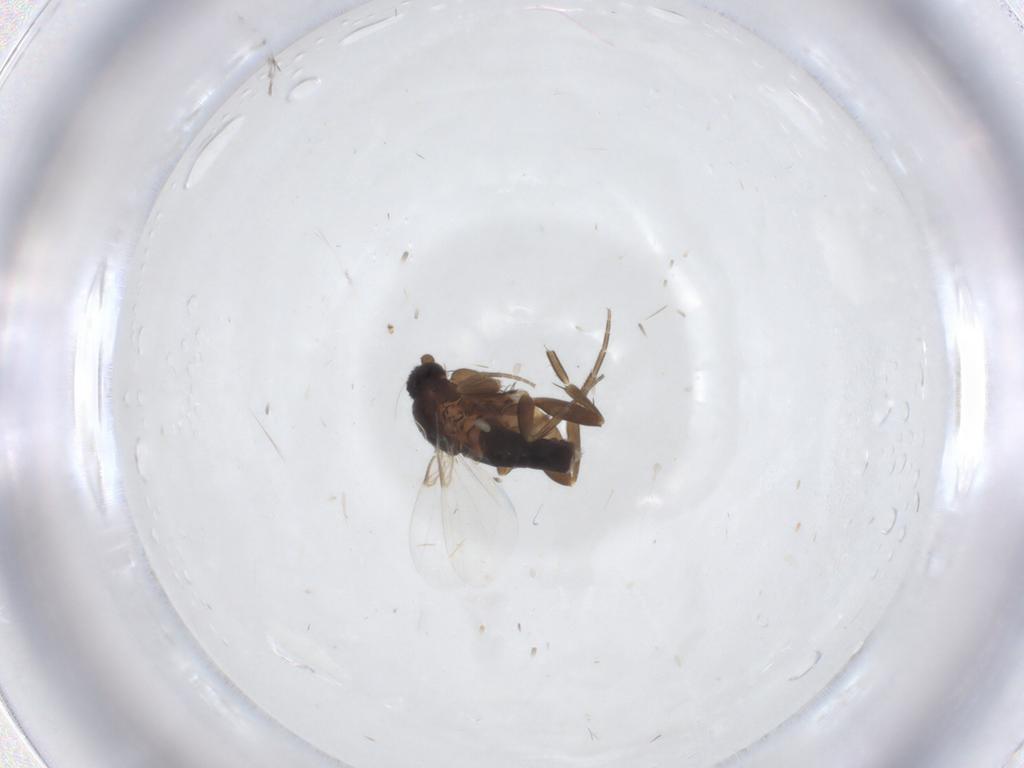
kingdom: Animalia
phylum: Arthropoda
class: Insecta
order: Diptera
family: Phoridae
